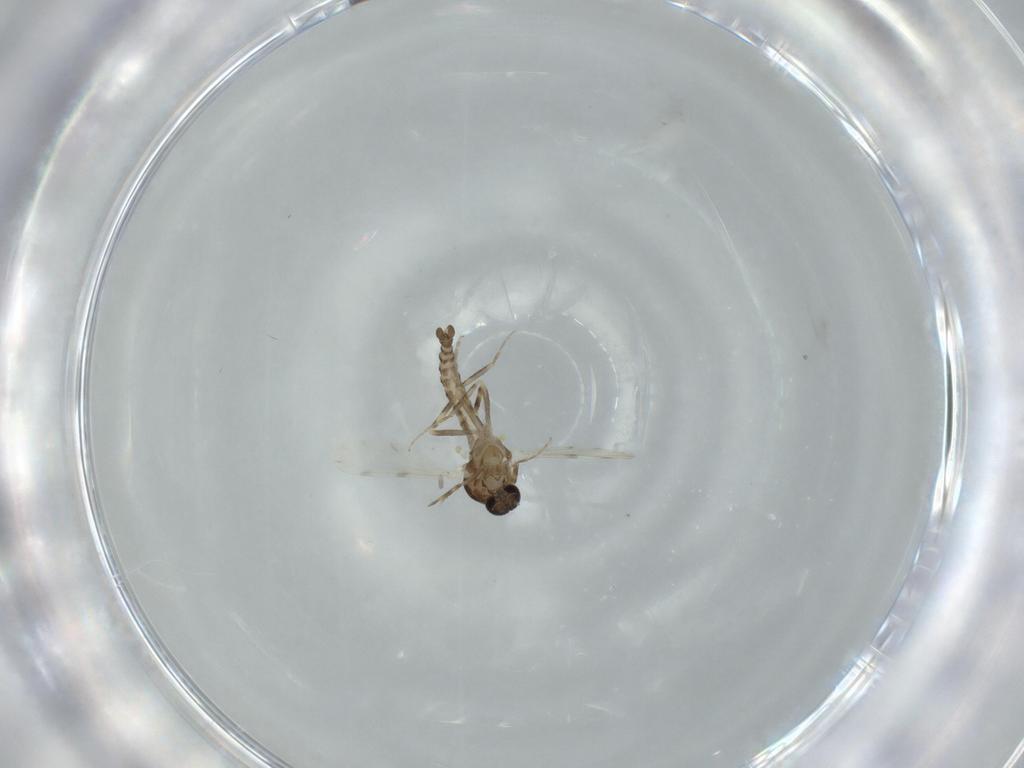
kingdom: Animalia
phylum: Arthropoda
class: Insecta
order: Diptera
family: Ceratopogonidae
